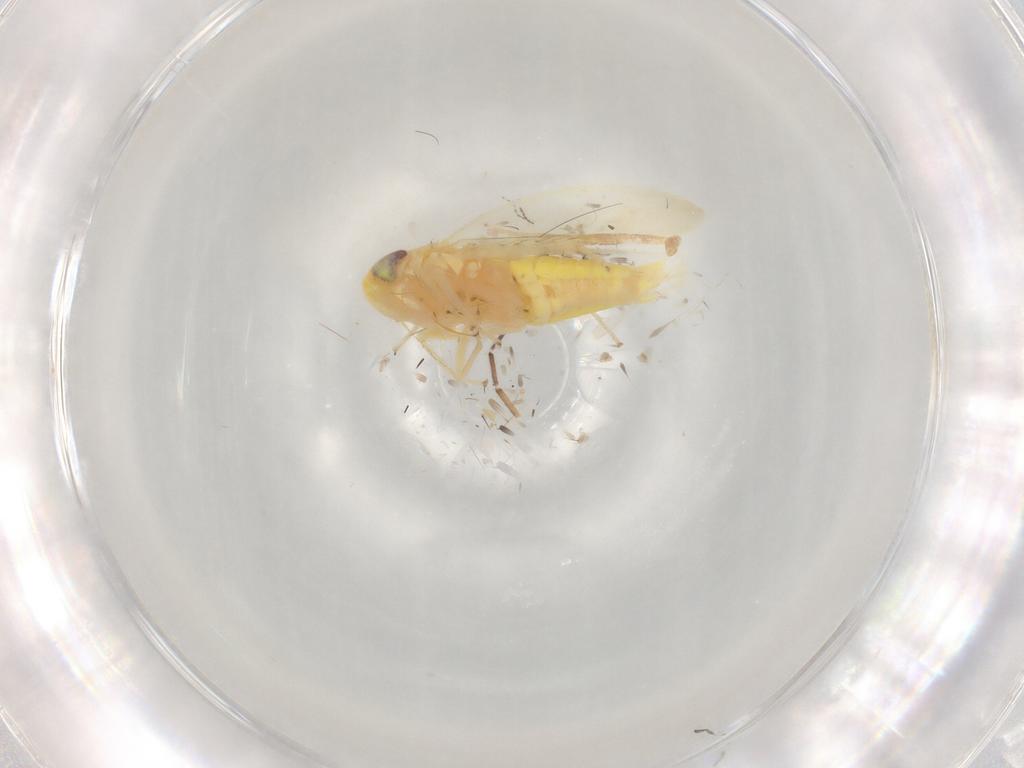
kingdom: Animalia
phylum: Arthropoda
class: Insecta
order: Hemiptera
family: Cicadellidae
